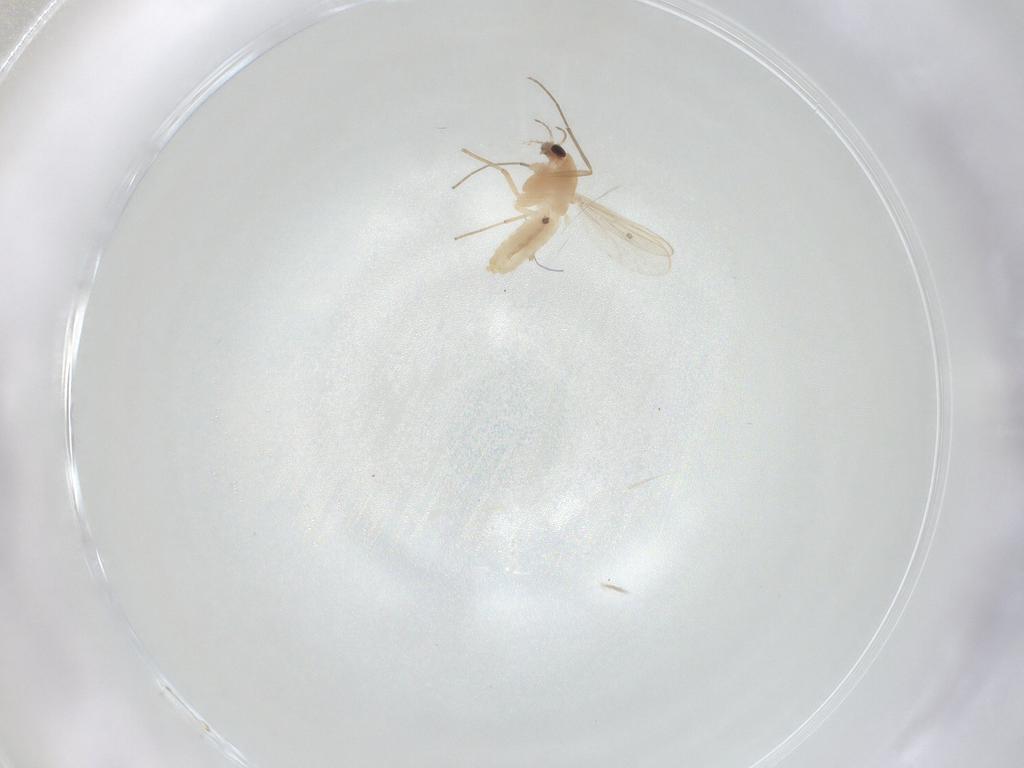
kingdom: Animalia
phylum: Arthropoda
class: Insecta
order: Diptera
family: Chironomidae
